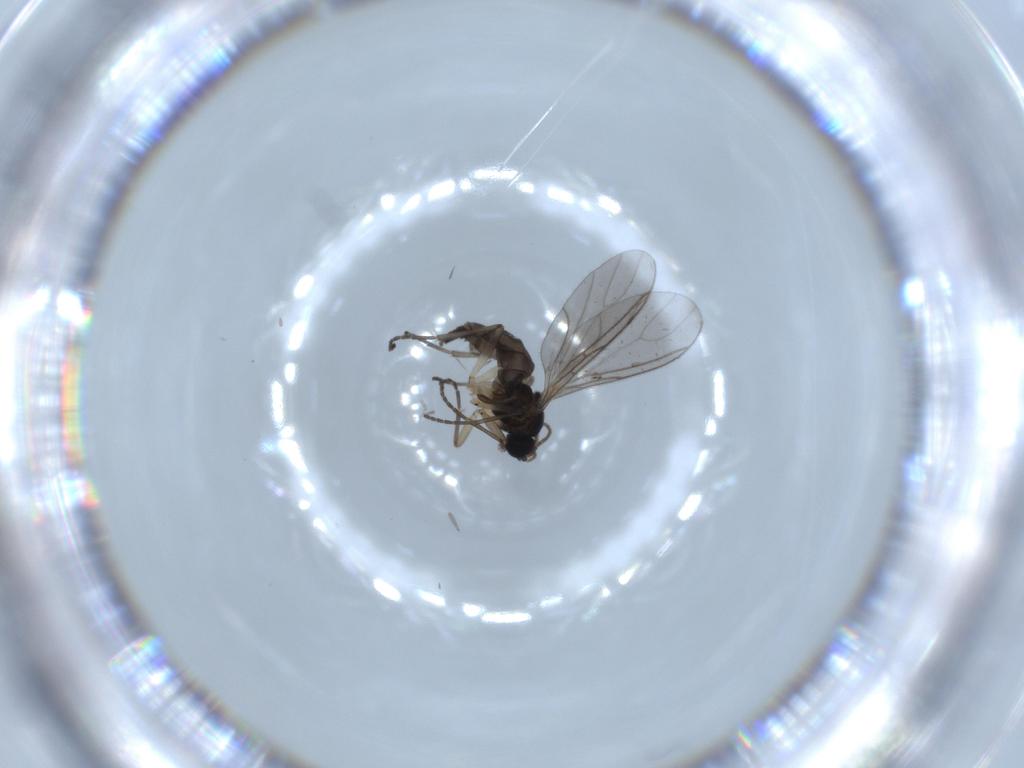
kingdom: Animalia
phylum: Arthropoda
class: Insecta
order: Diptera
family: Sciaridae
